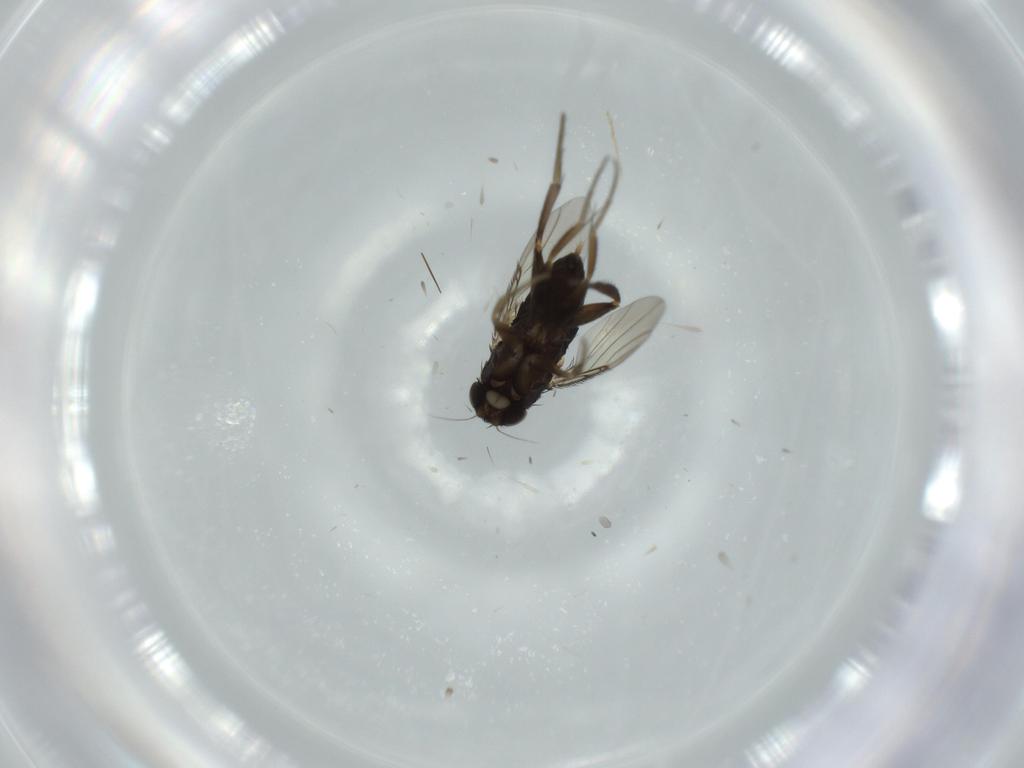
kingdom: Animalia
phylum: Arthropoda
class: Insecta
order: Diptera
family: Phoridae
